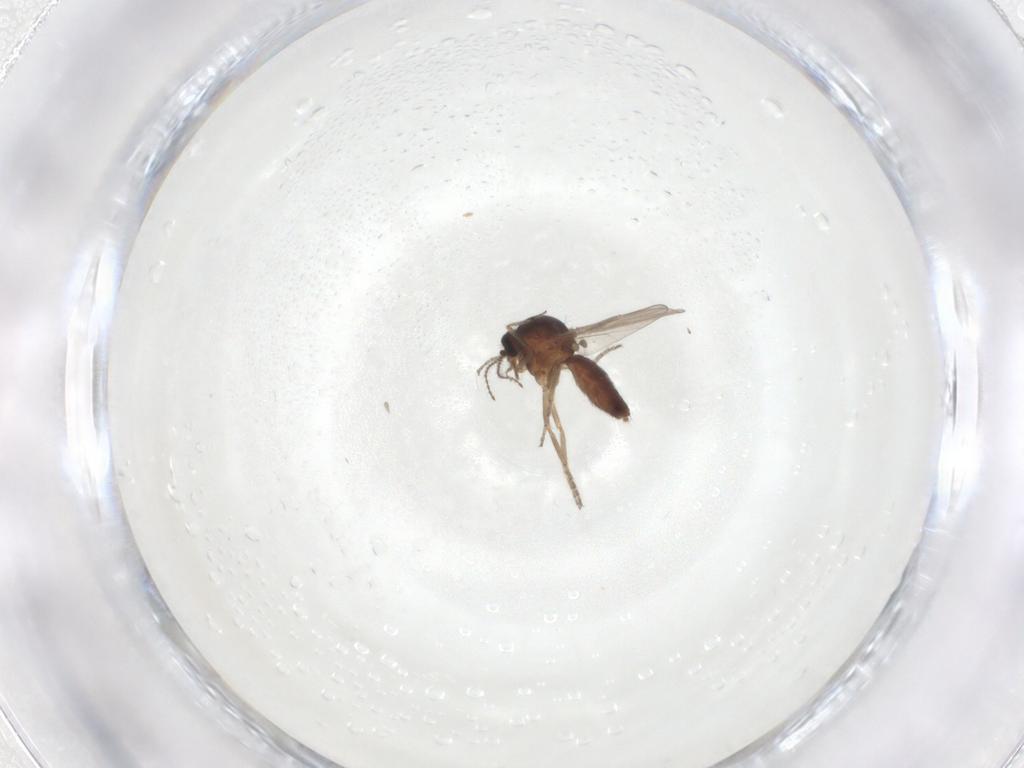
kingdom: Animalia
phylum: Arthropoda
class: Insecta
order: Diptera
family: Ceratopogonidae
